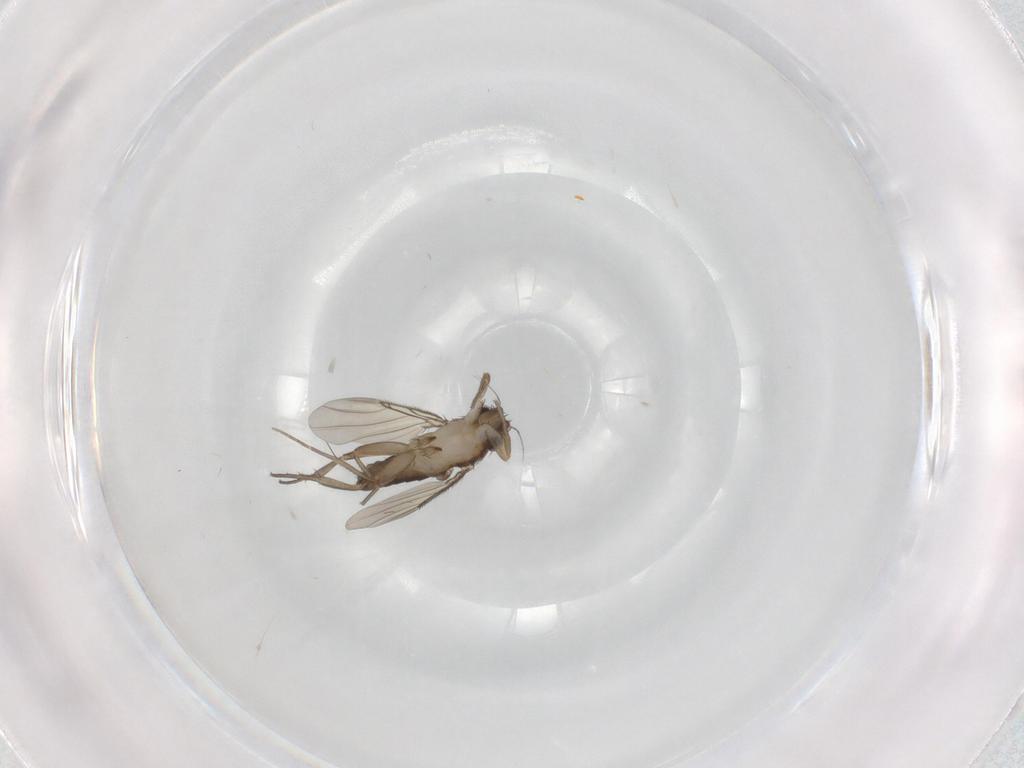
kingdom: Animalia
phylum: Arthropoda
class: Insecta
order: Diptera
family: Phoridae
